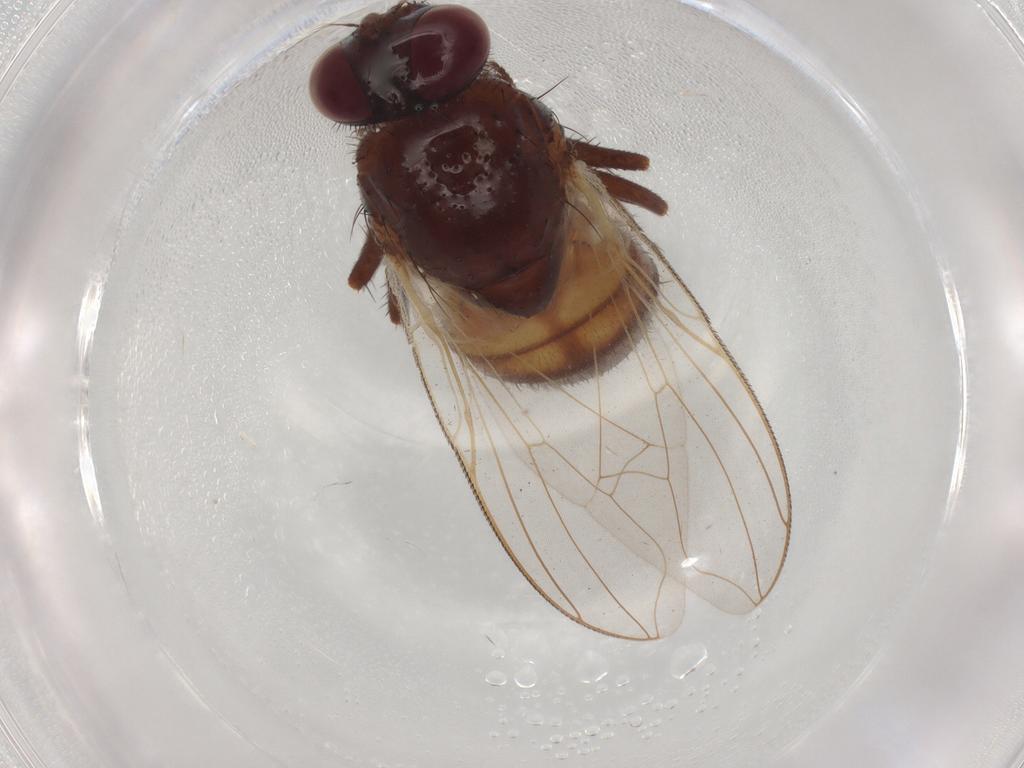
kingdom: Animalia
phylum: Arthropoda
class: Insecta
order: Diptera
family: Muscidae
